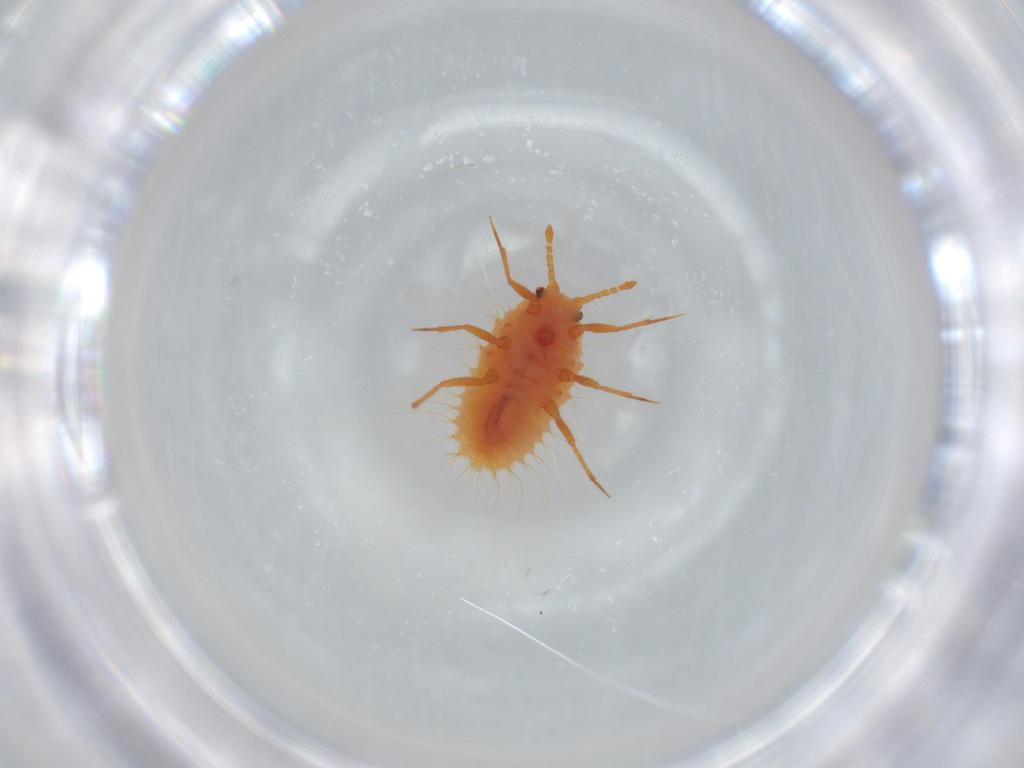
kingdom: Animalia
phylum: Arthropoda
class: Insecta
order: Hemiptera
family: Coccoidea_incertae_sedis
